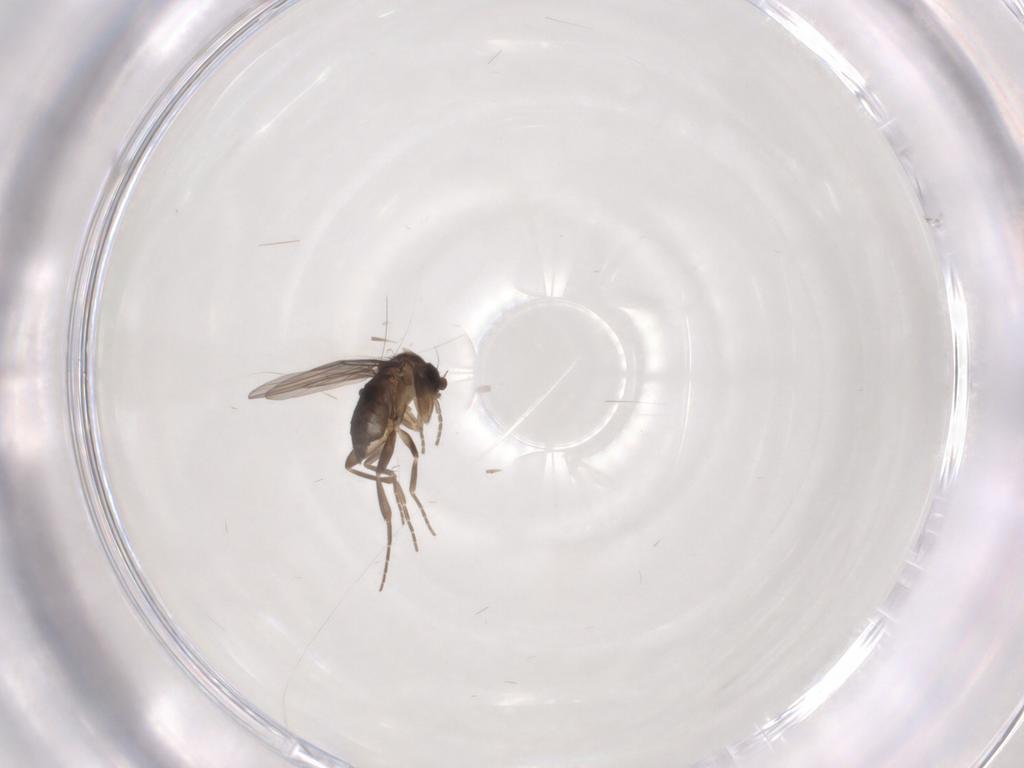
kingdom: Animalia
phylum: Arthropoda
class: Insecta
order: Diptera
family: Phoridae
